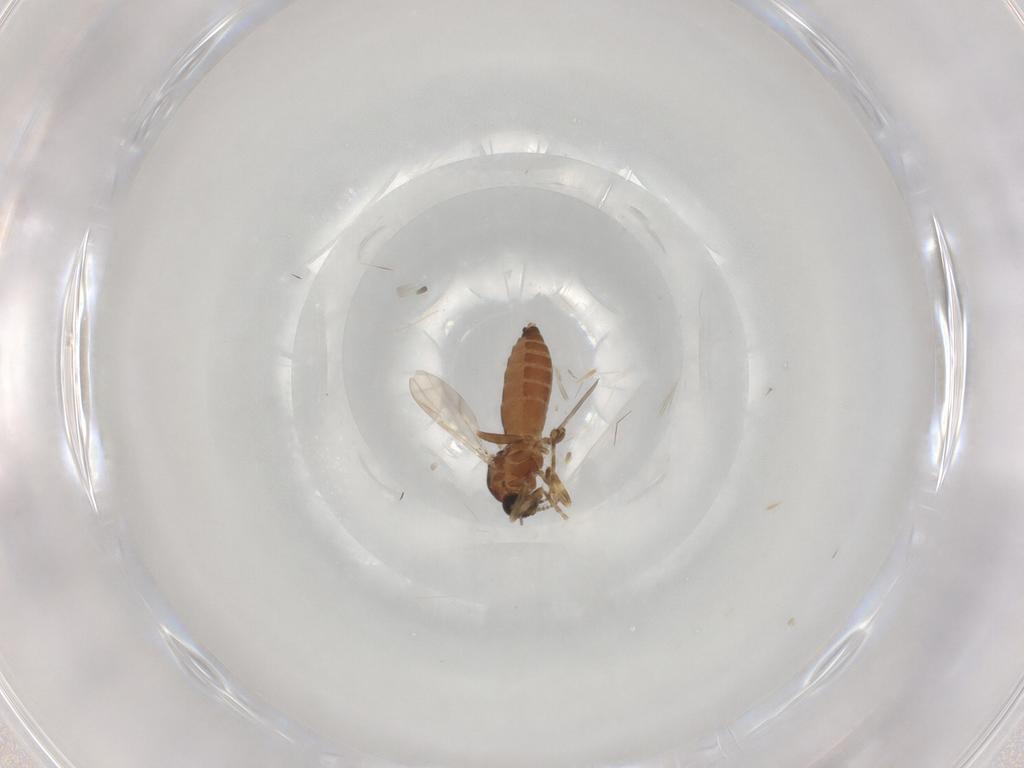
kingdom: Animalia
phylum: Arthropoda
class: Insecta
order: Diptera
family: Ceratopogonidae
